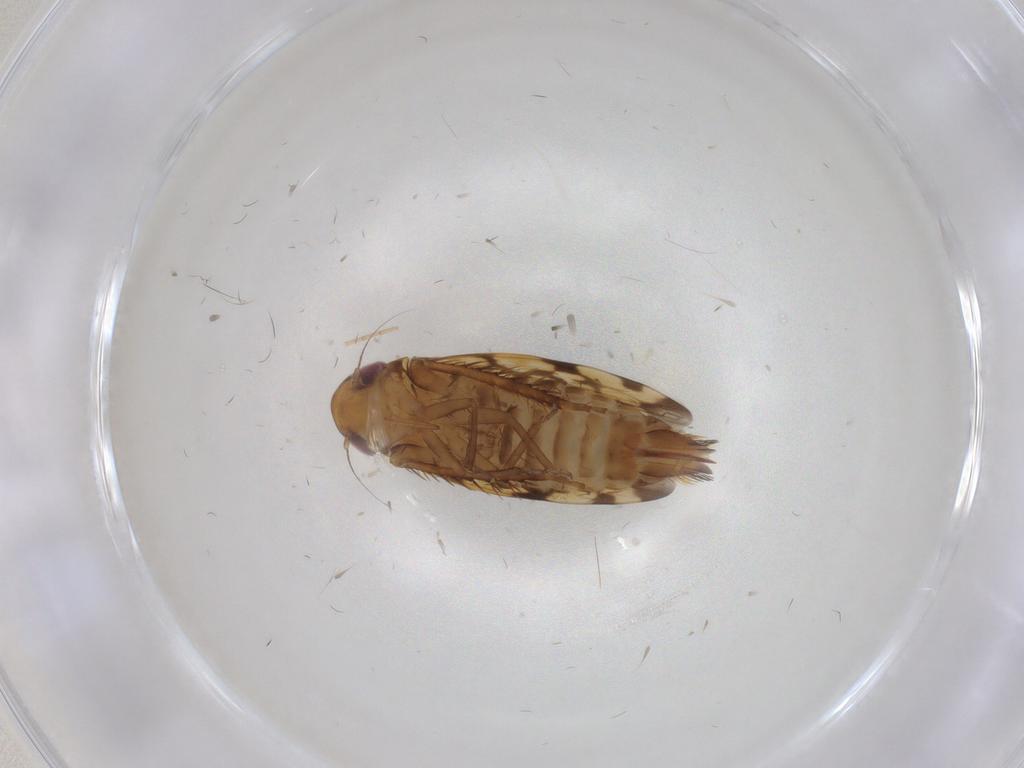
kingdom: Animalia
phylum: Arthropoda
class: Insecta
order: Hemiptera
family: Cicadellidae
